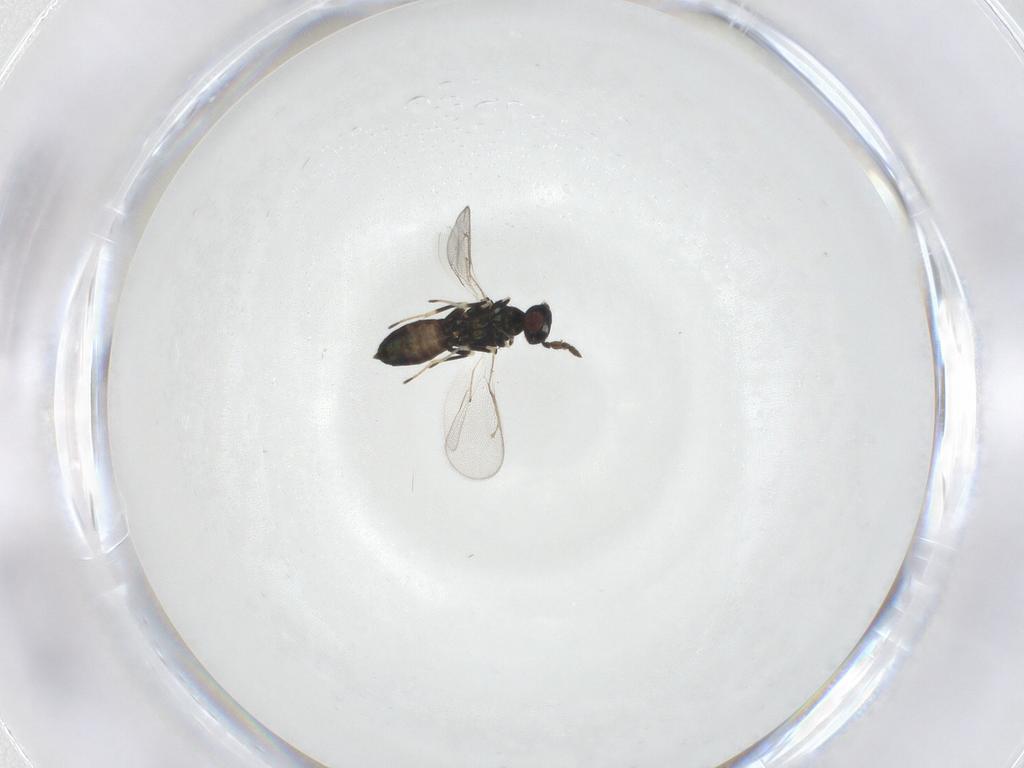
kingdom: Animalia
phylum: Arthropoda
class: Insecta
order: Hymenoptera
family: Eulophidae
